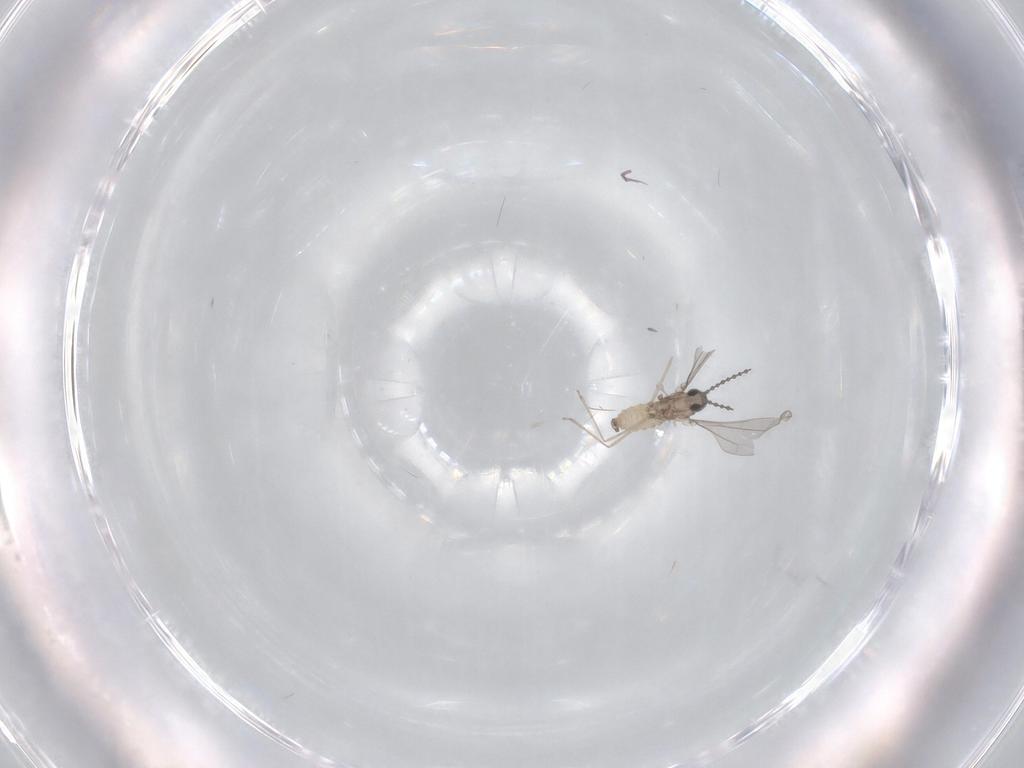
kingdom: Animalia
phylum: Arthropoda
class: Insecta
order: Diptera
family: Cecidomyiidae
